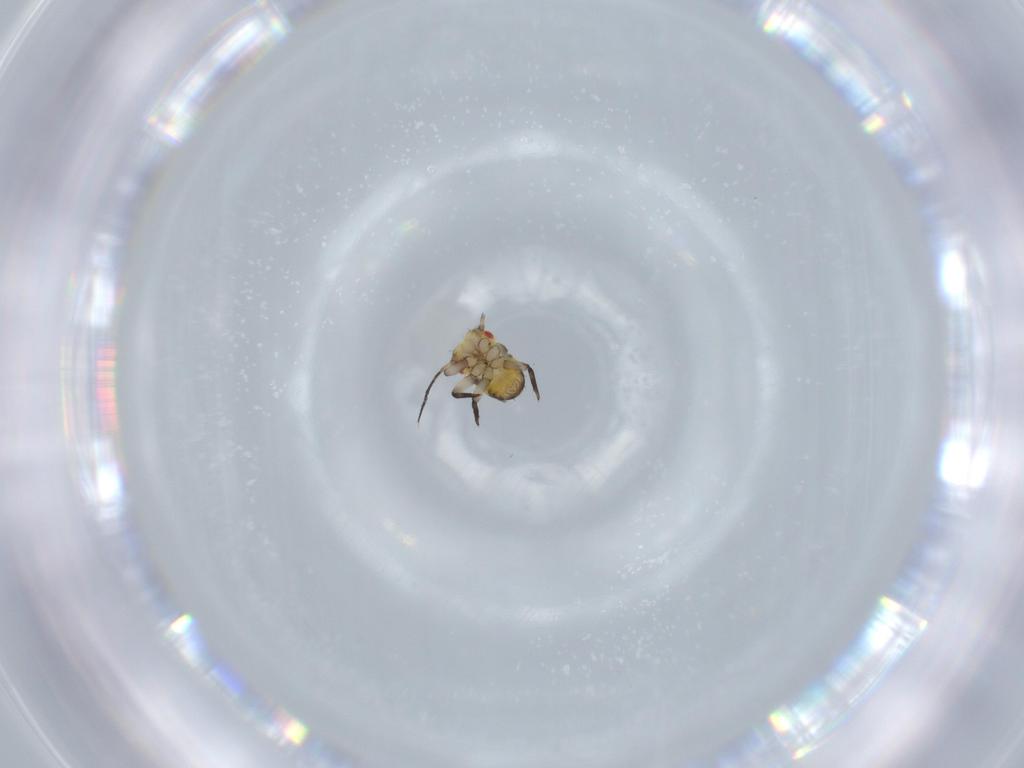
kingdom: Animalia
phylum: Arthropoda
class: Insecta
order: Hemiptera
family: Psyllidae
